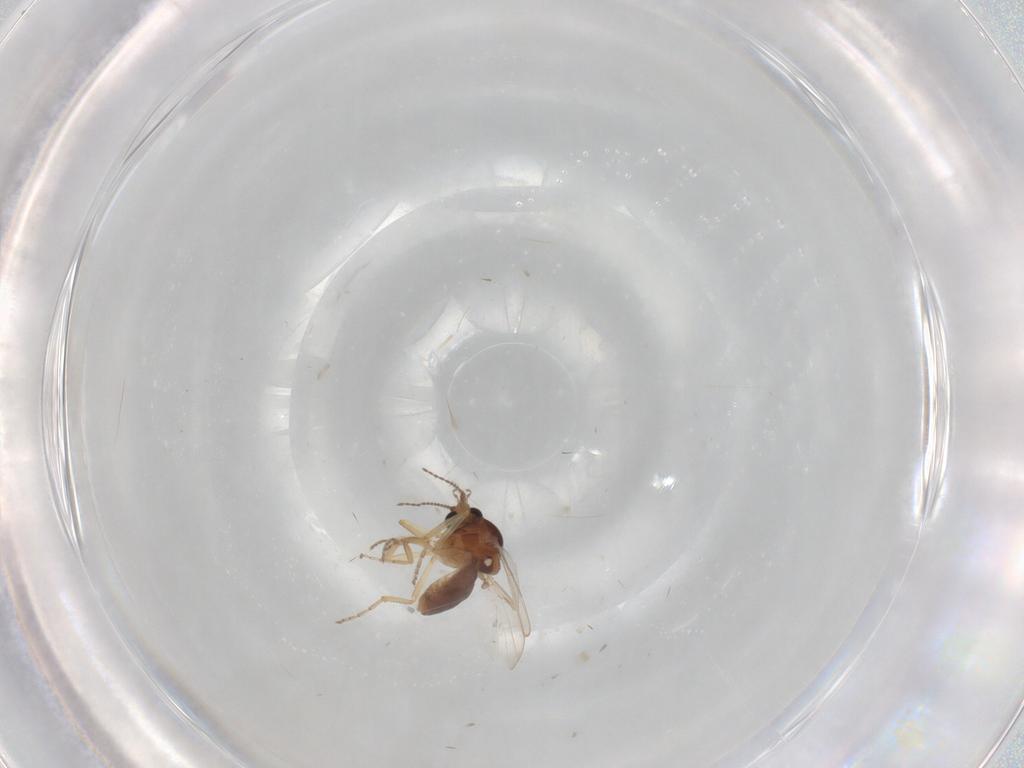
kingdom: Animalia
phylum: Arthropoda
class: Insecta
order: Diptera
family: Ceratopogonidae
